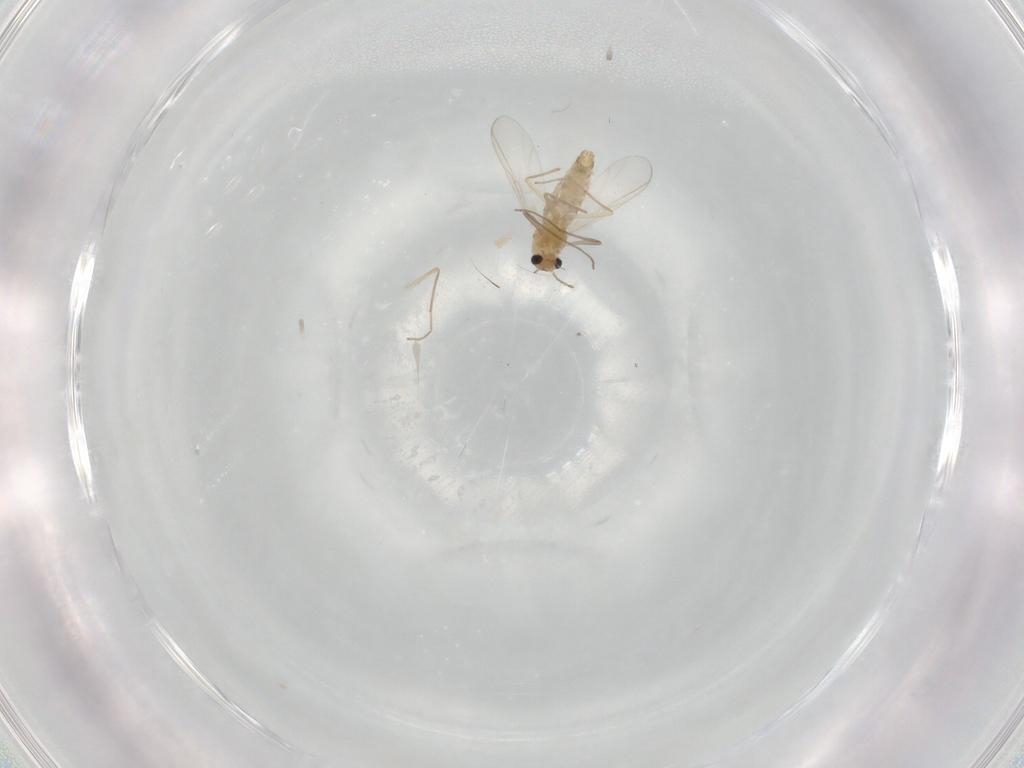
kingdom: Animalia
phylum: Arthropoda
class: Insecta
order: Diptera
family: Chironomidae
